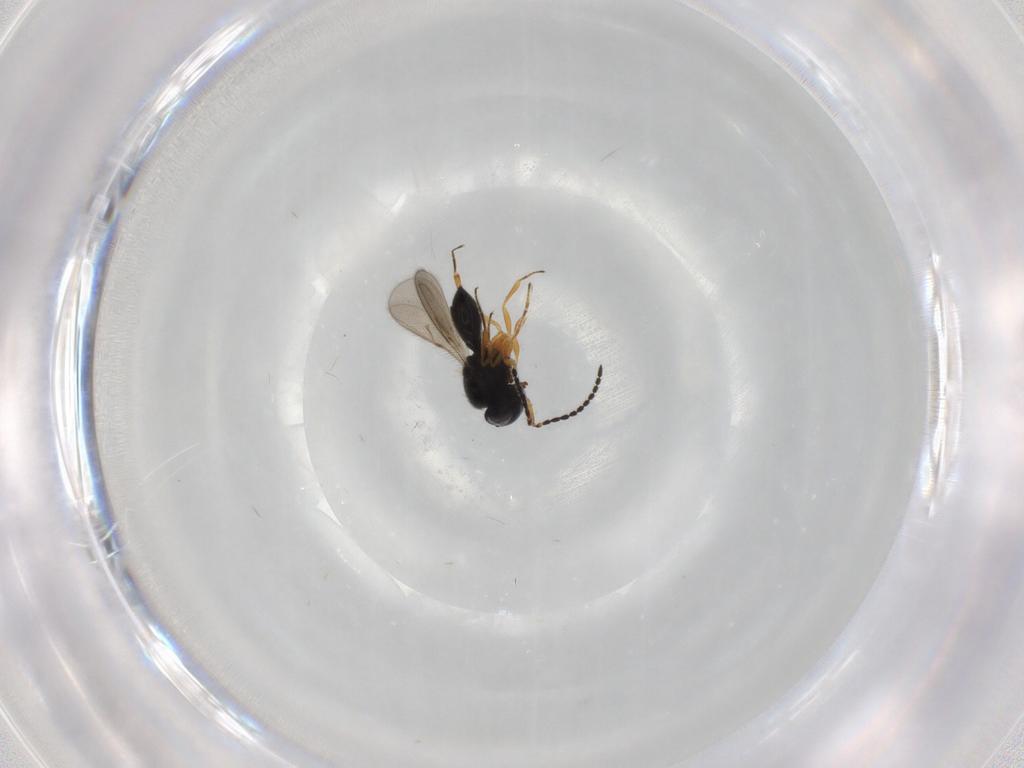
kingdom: Animalia
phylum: Arthropoda
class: Insecta
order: Hymenoptera
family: Scelionidae
